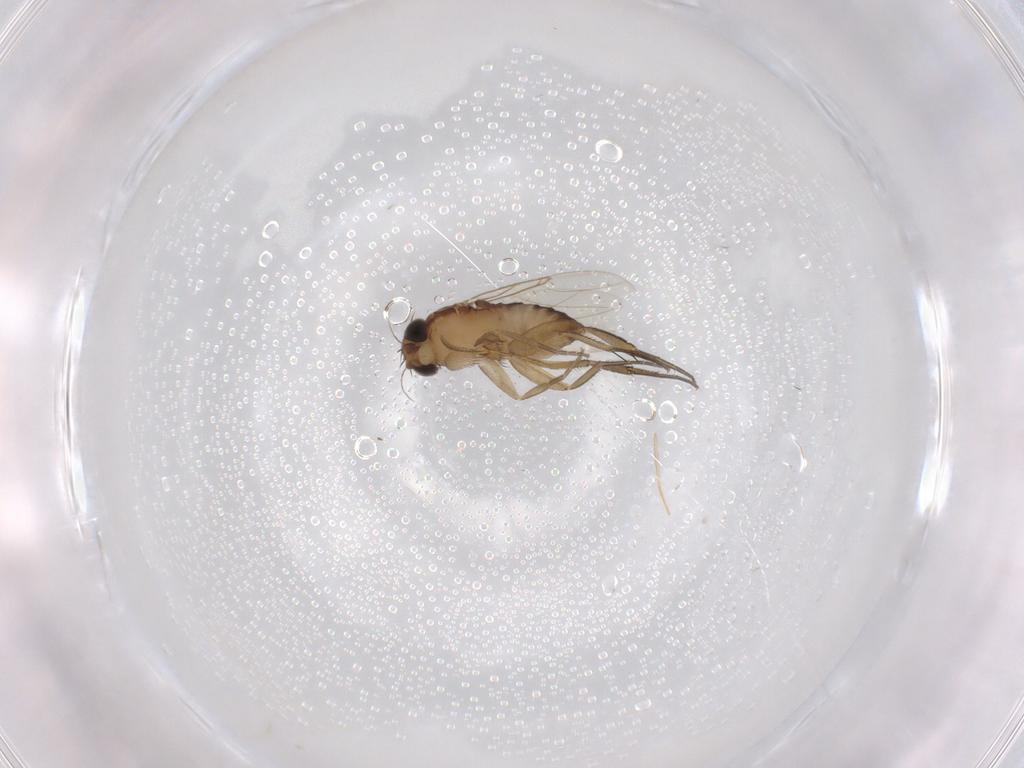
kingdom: Animalia
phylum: Arthropoda
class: Insecta
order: Diptera
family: Phoridae
